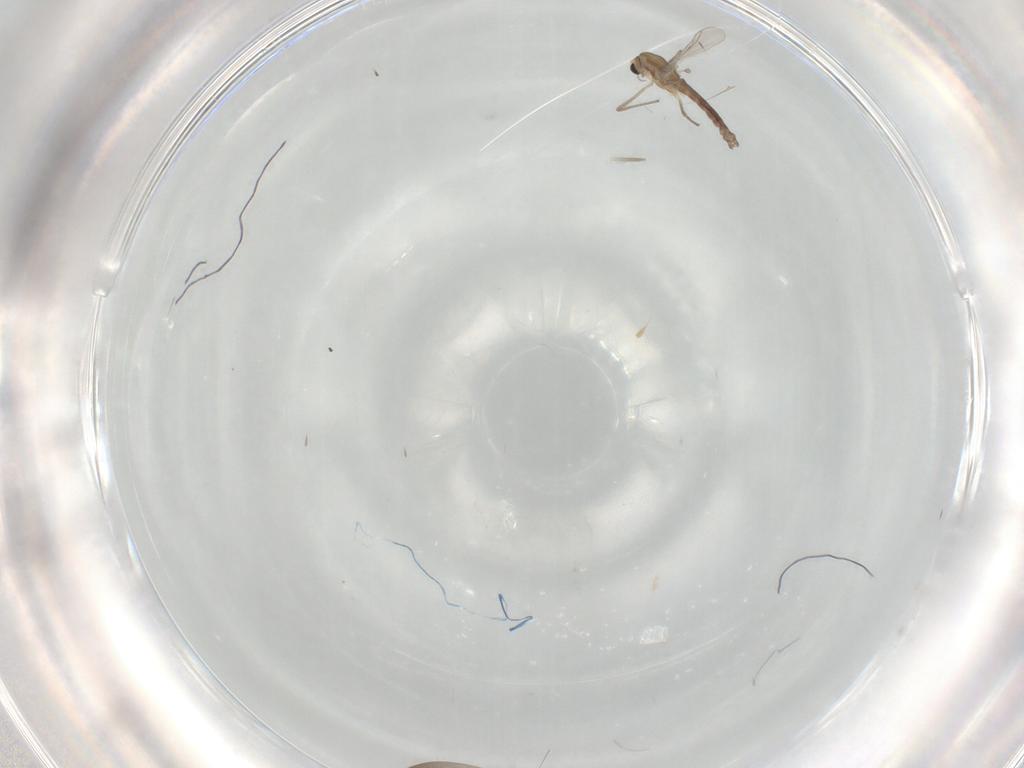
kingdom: Animalia
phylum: Arthropoda
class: Insecta
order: Diptera
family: Chironomidae
